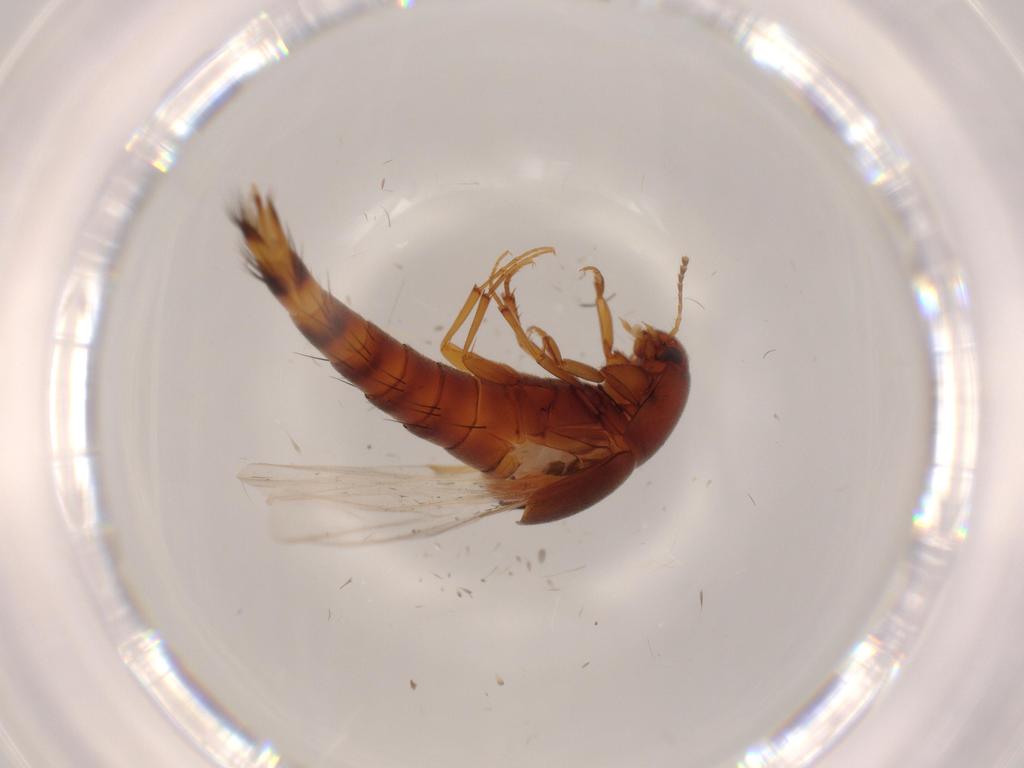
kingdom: Animalia
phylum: Arthropoda
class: Insecta
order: Coleoptera
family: Staphylinidae
